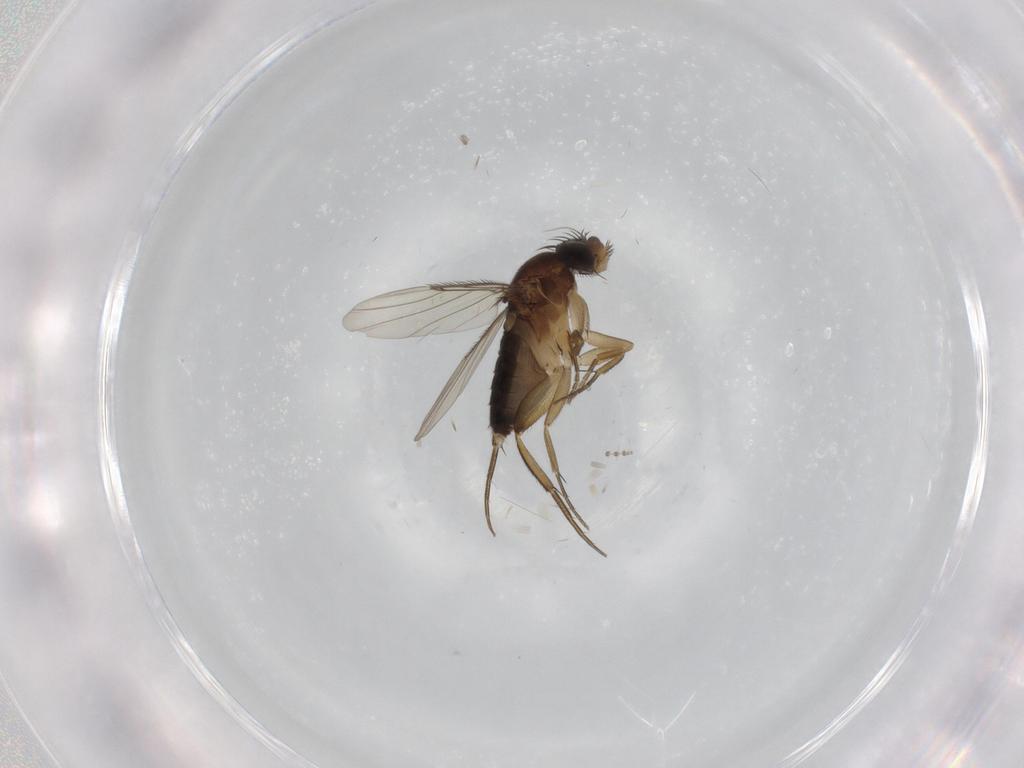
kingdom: Animalia
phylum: Arthropoda
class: Insecta
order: Diptera
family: Phoridae
